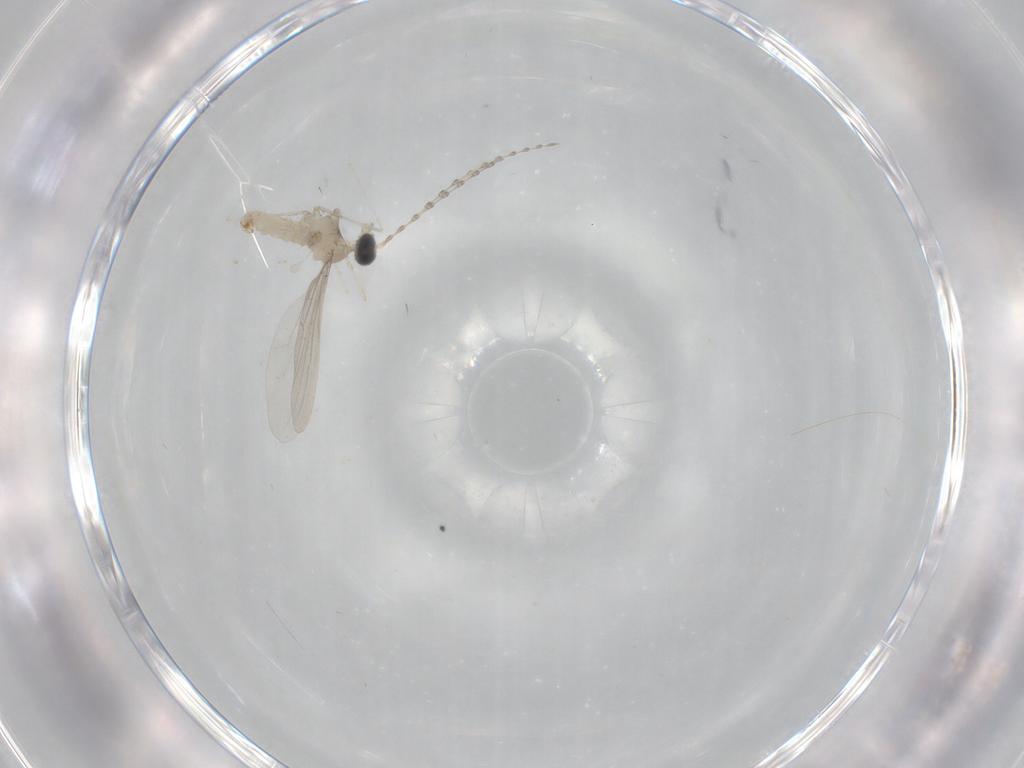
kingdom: Animalia
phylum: Arthropoda
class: Insecta
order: Diptera
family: Cecidomyiidae
